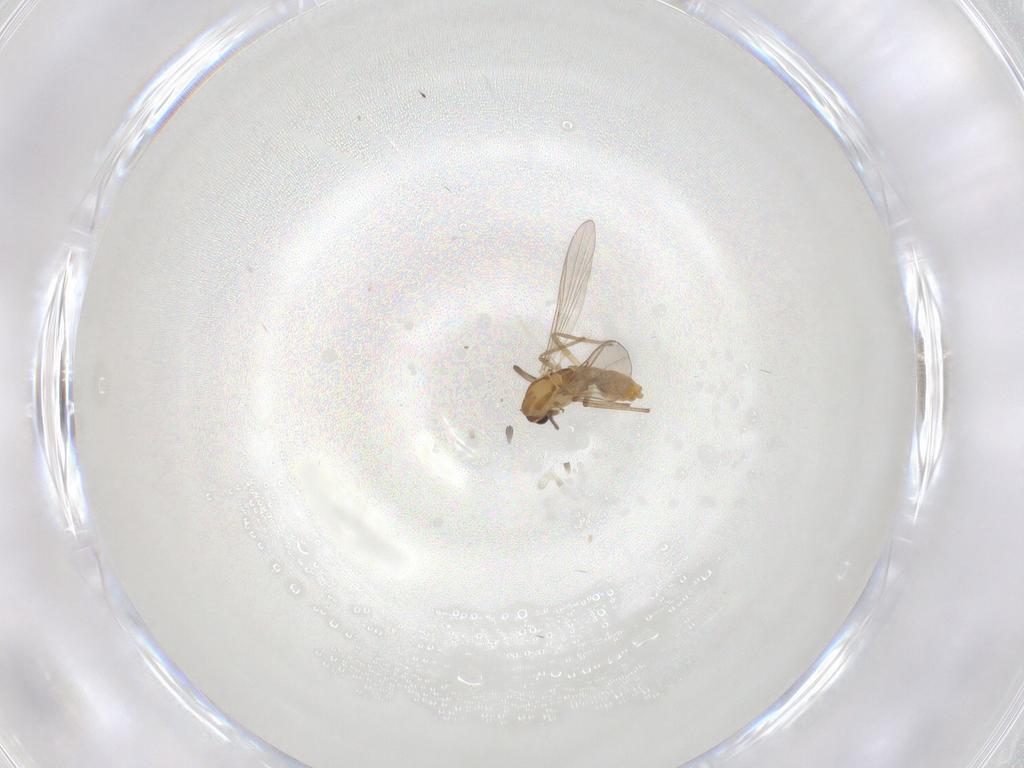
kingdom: Animalia
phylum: Arthropoda
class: Insecta
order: Diptera
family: Chironomidae
